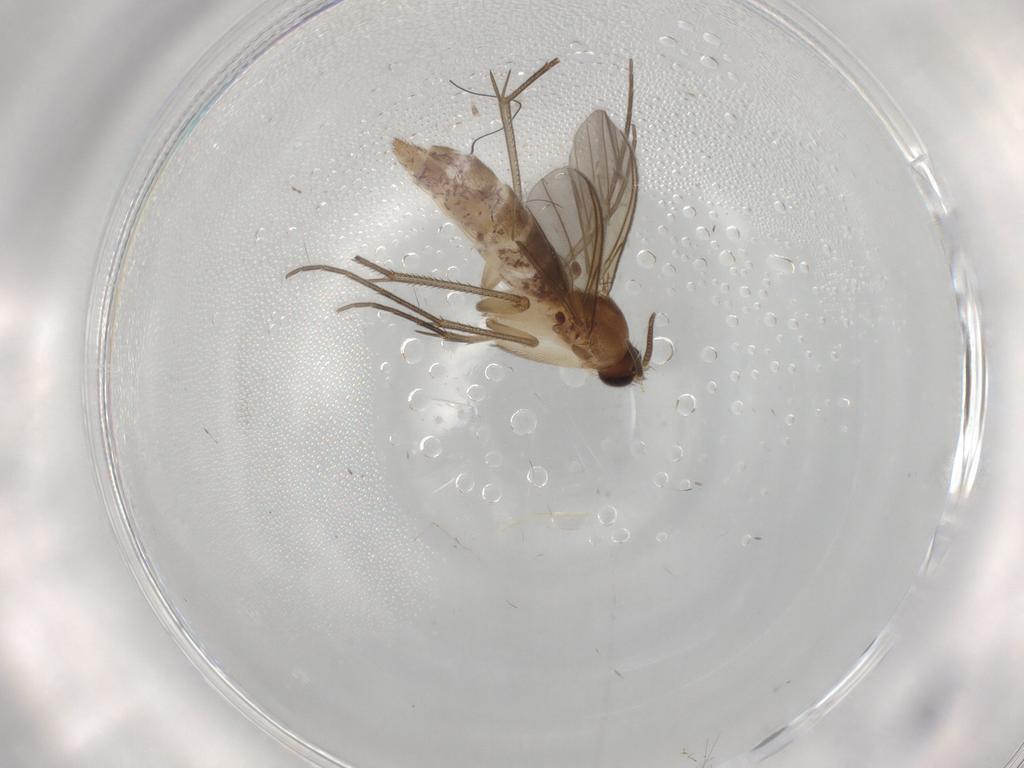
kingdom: Animalia
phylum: Arthropoda
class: Insecta
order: Diptera
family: Mycetophilidae
